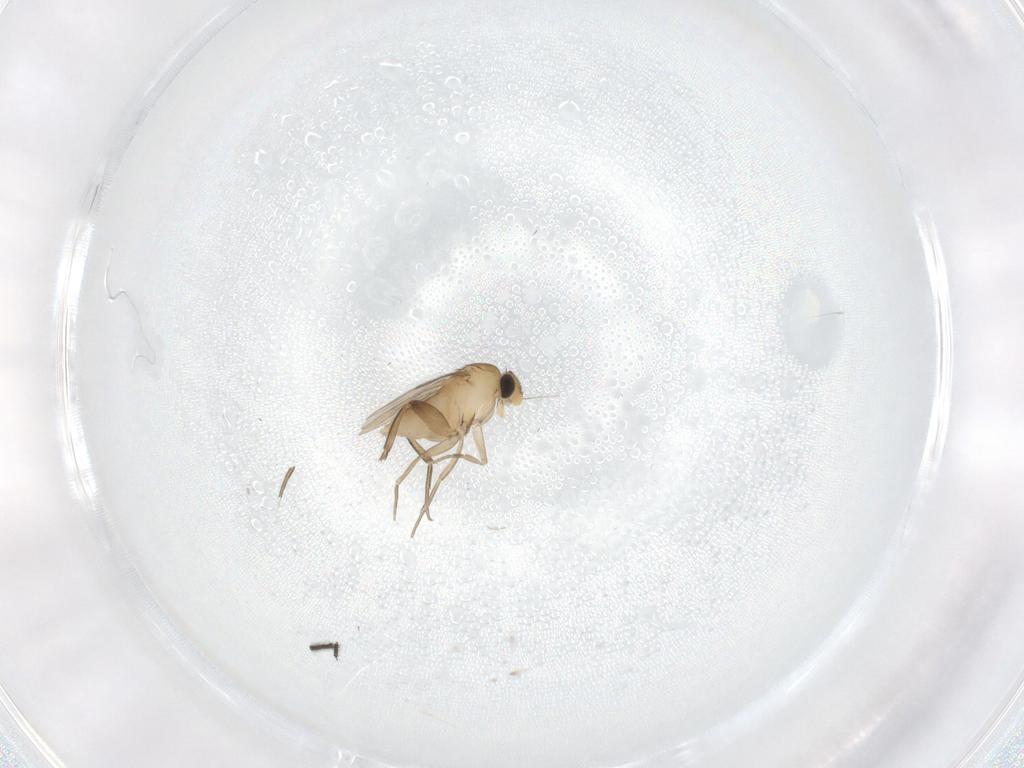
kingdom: Animalia
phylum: Arthropoda
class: Insecta
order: Diptera
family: Phoridae
